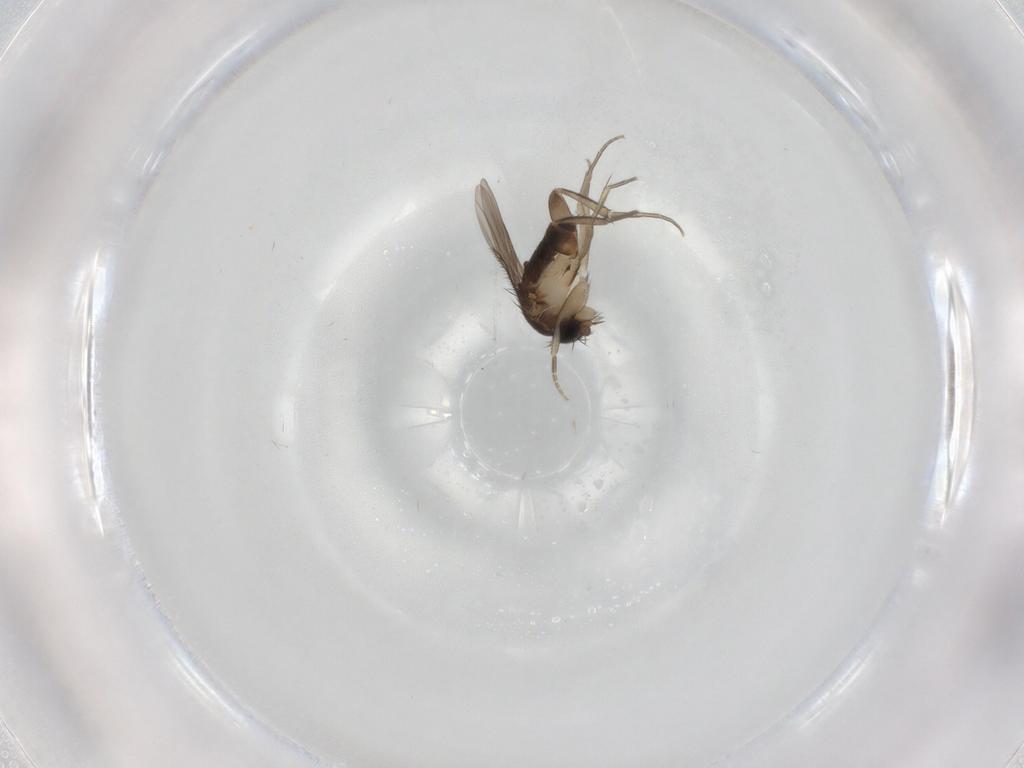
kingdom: Animalia
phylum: Arthropoda
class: Insecta
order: Diptera
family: Phoridae
